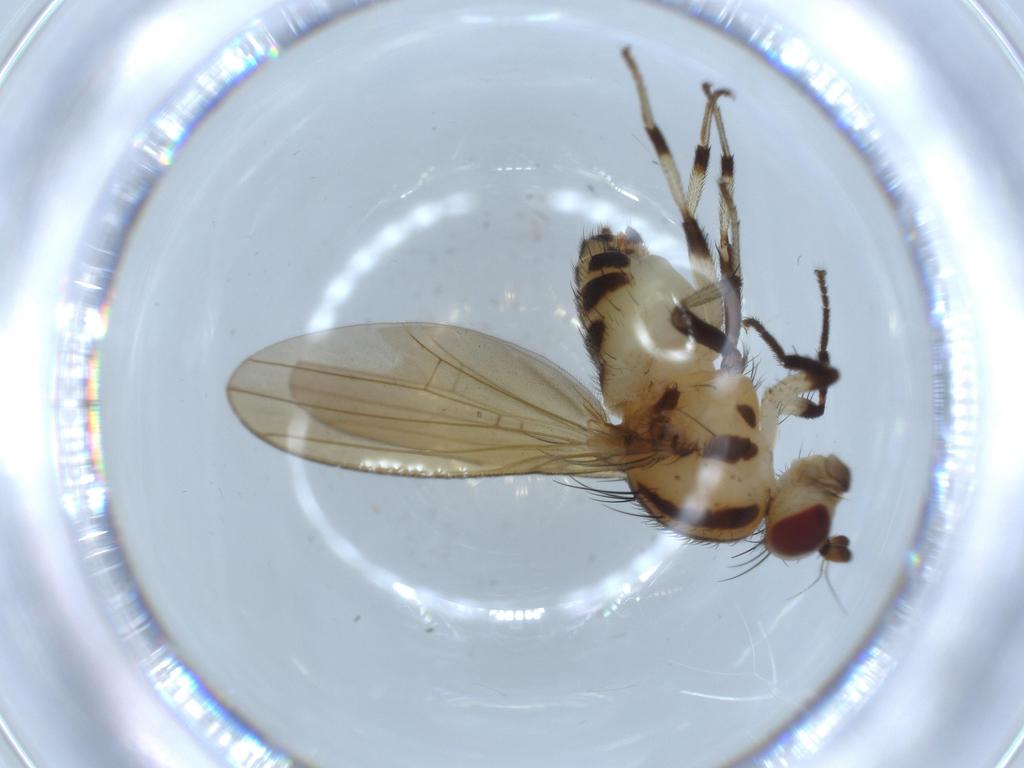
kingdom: Animalia
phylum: Arthropoda
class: Insecta
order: Diptera
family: Lauxaniidae
